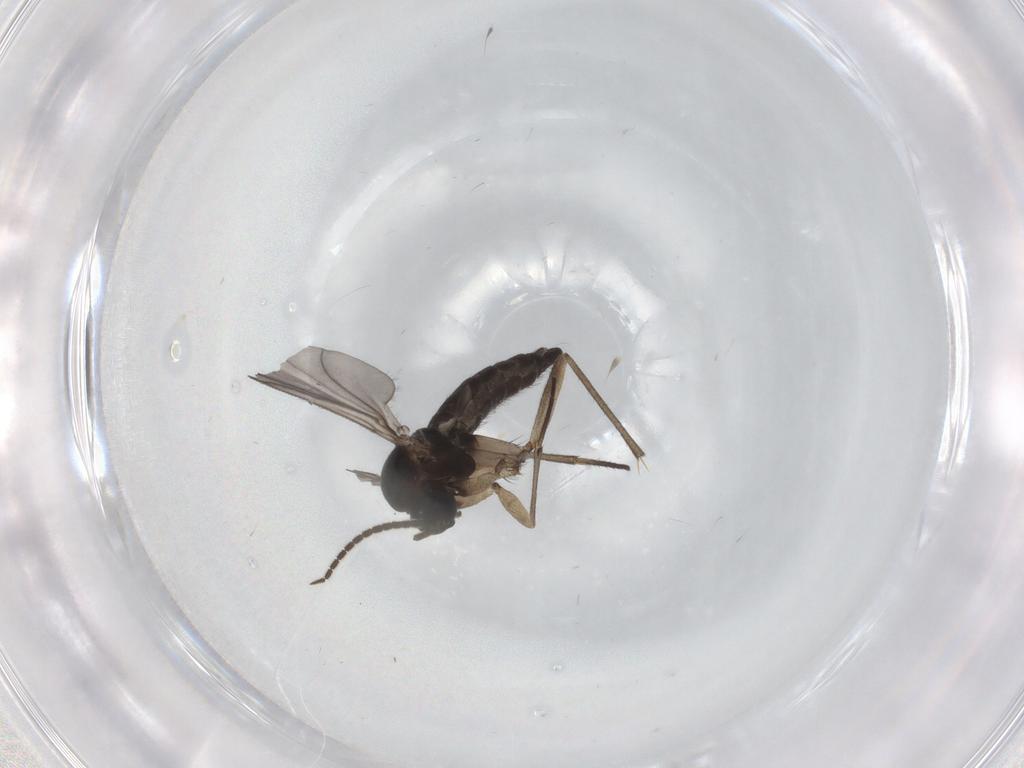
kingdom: Animalia
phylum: Arthropoda
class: Insecta
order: Diptera
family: Sciaridae
